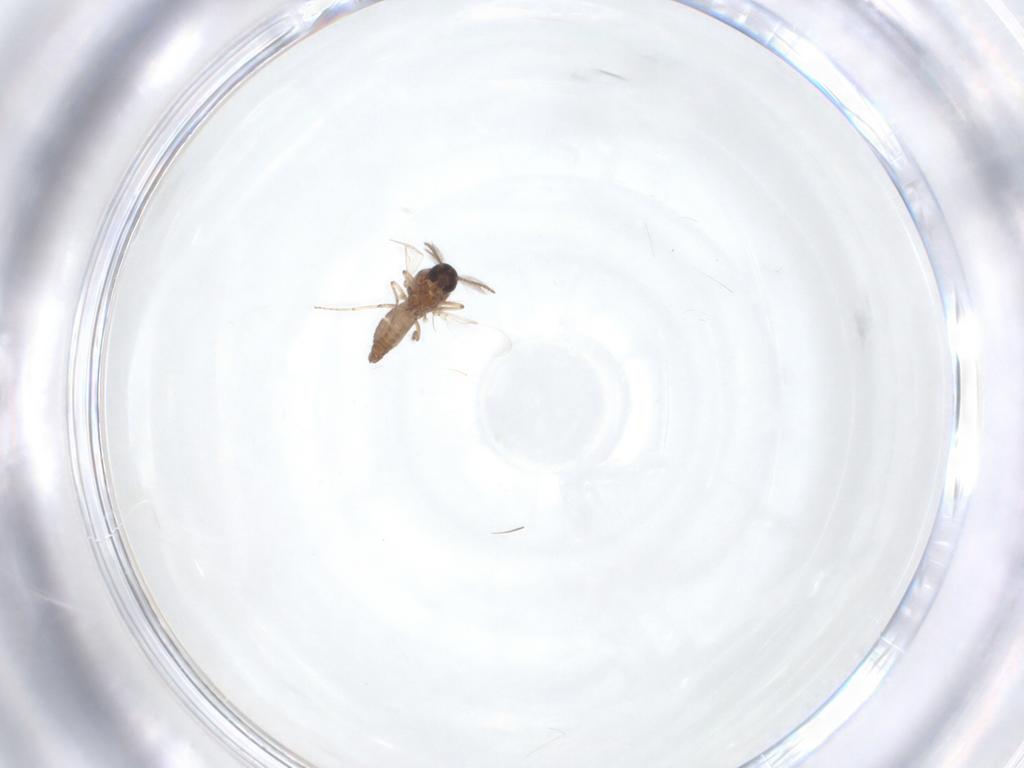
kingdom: Animalia
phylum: Arthropoda
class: Insecta
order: Diptera
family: Ceratopogonidae
